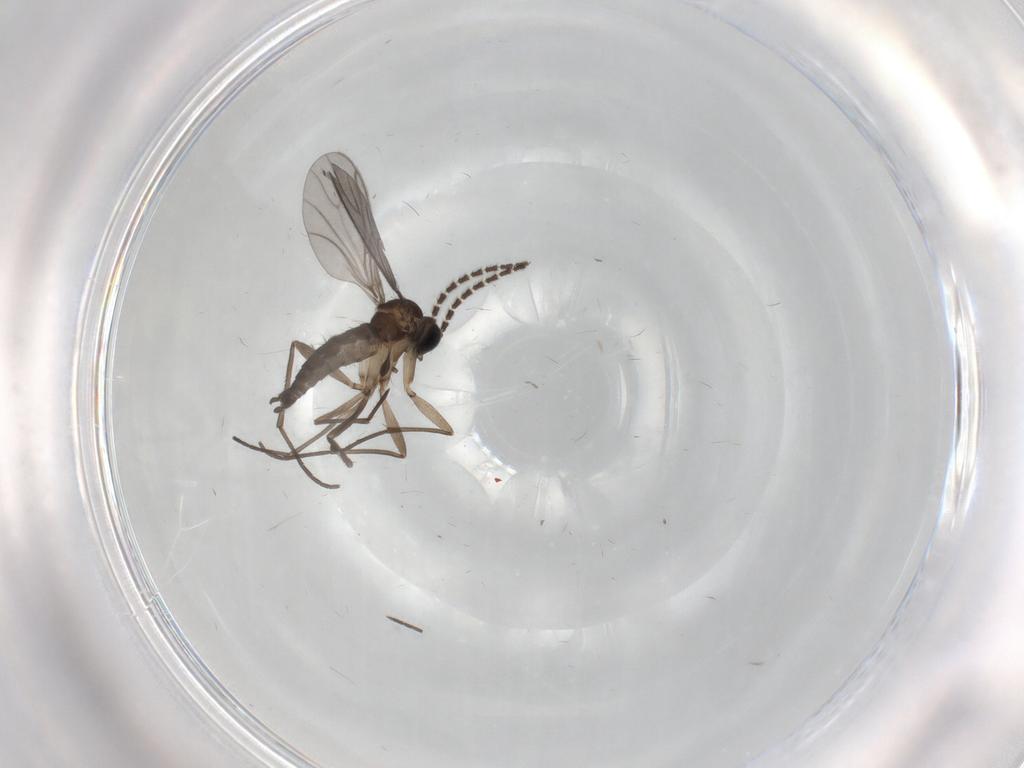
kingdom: Animalia
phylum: Arthropoda
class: Insecta
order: Diptera
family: Sciaridae
